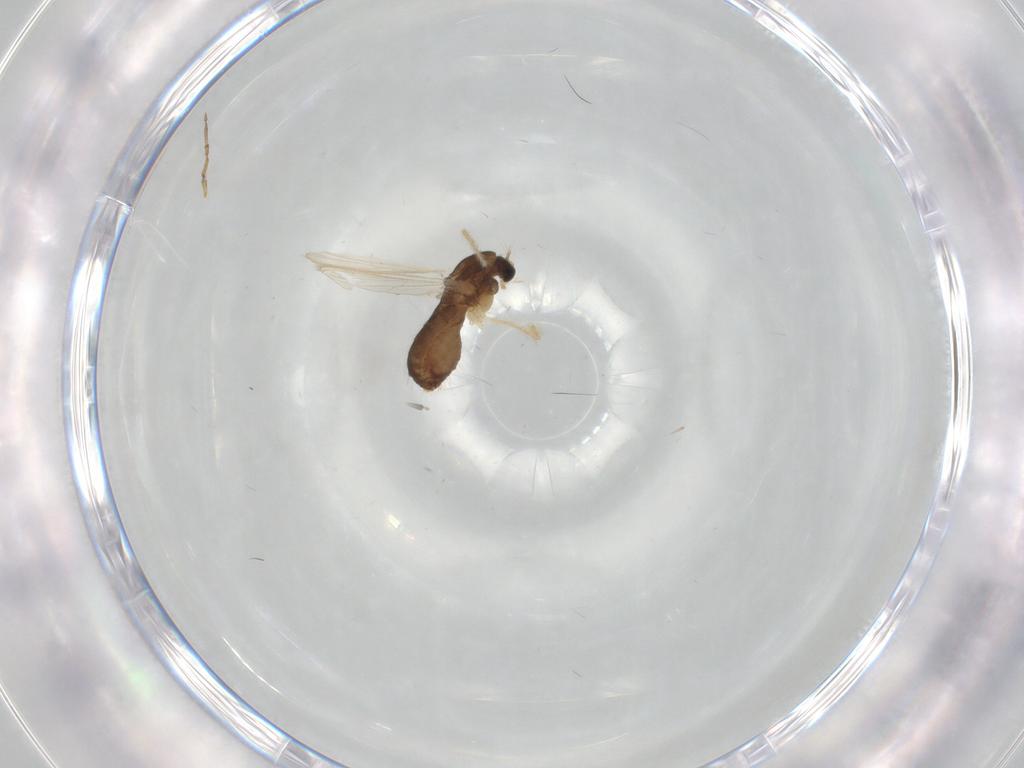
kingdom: Animalia
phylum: Arthropoda
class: Insecta
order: Diptera
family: Chironomidae
